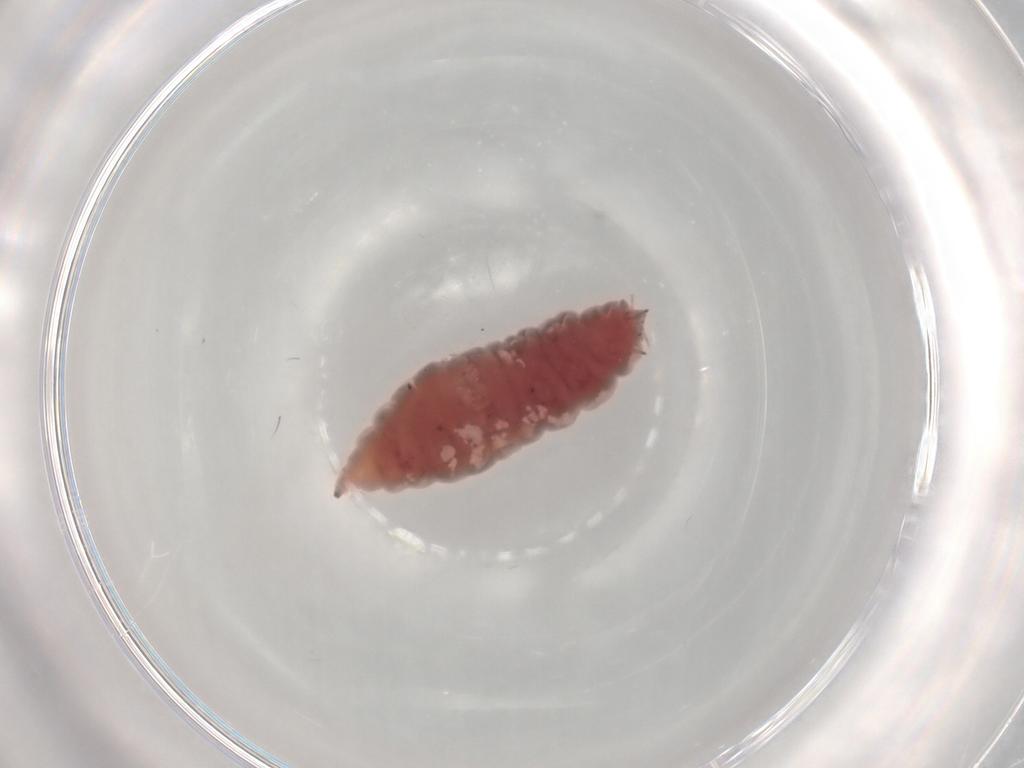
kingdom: Animalia
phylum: Arthropoda
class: Insecta
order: Neuroptera
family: Coniopterygidae
